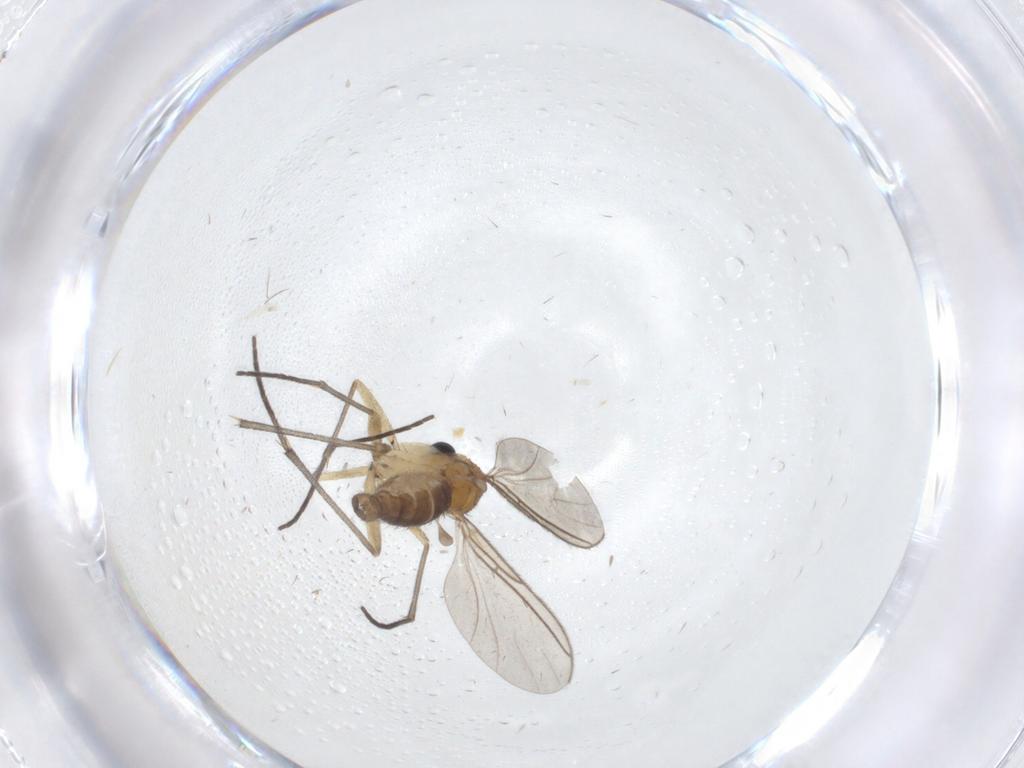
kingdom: Animalia
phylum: Arthropoda
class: Insecta
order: Diptera
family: Sciaridae
